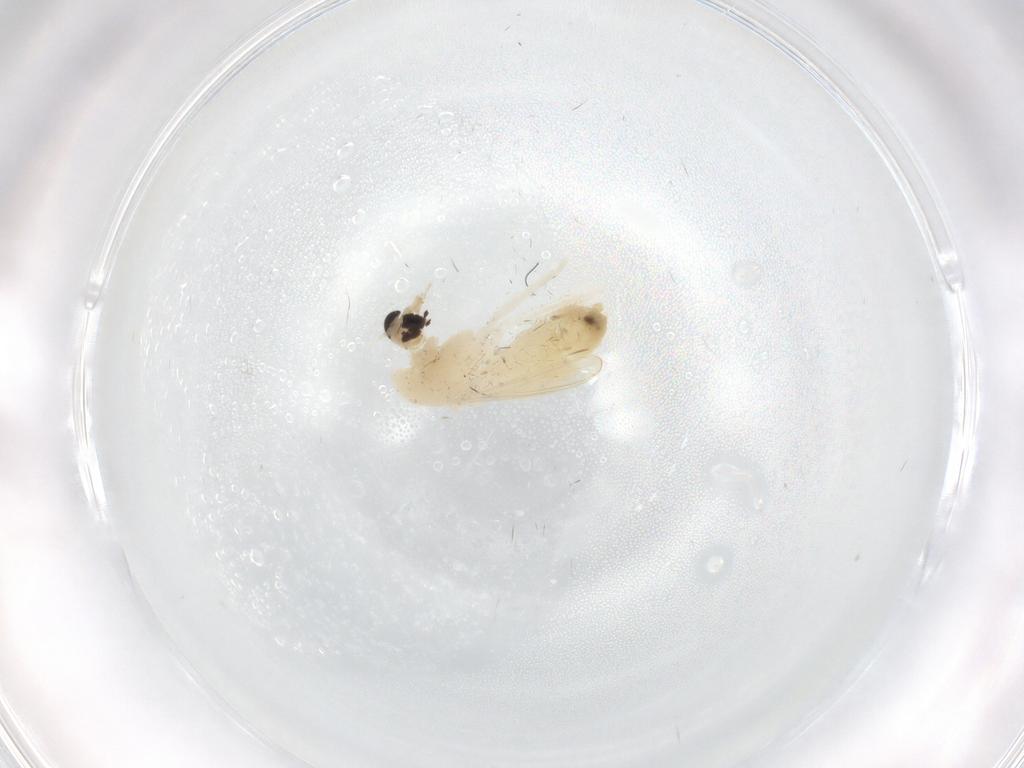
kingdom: Animalia
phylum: Arthropoda
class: Insecta
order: Diptera
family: Chironomidae
